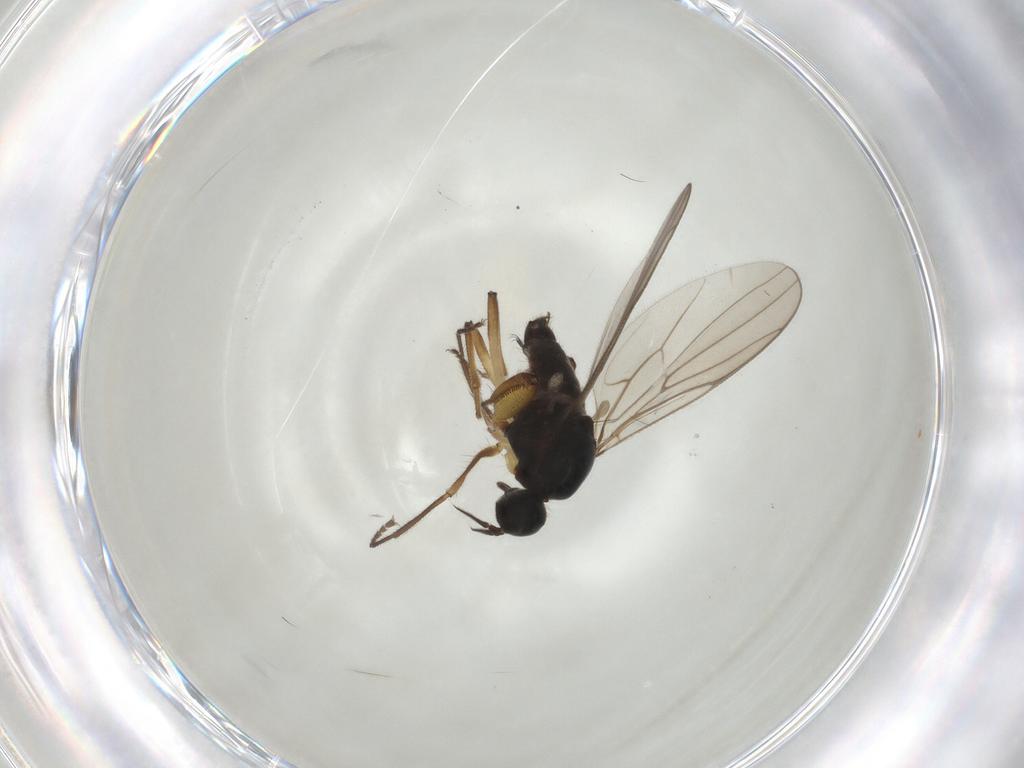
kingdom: Animalia
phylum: Arthropoda
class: Insecta
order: Diptera
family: Hybotidae
